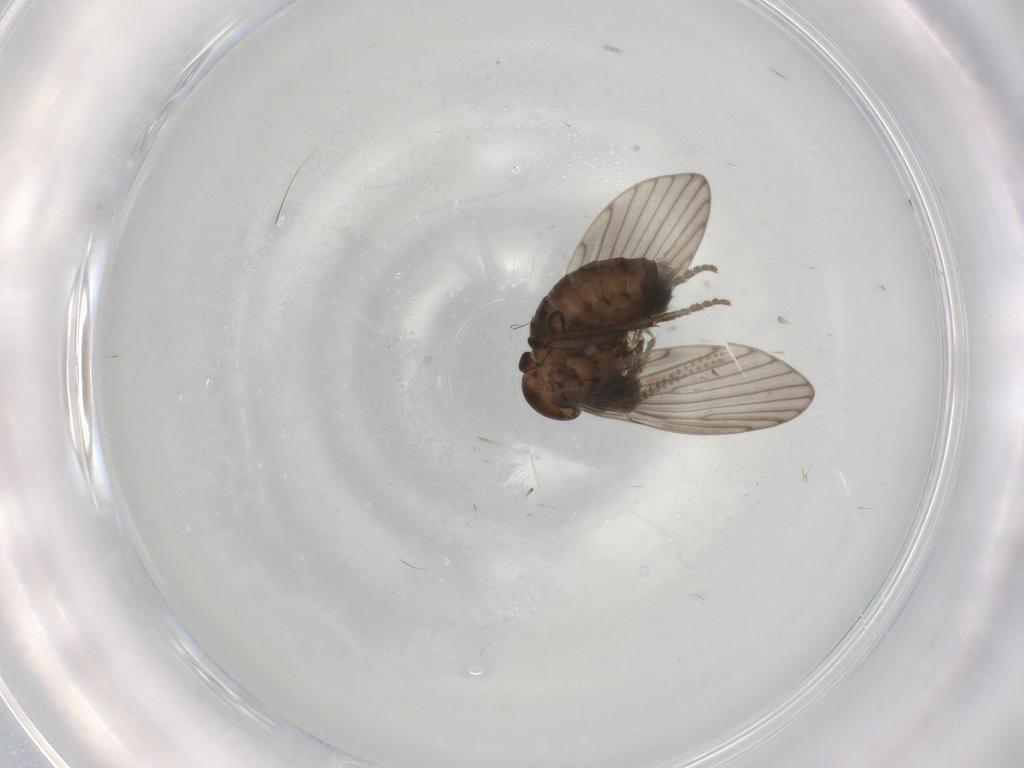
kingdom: Animalia
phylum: Arthropoda
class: Insecta
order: Diptera
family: Psychodidae
